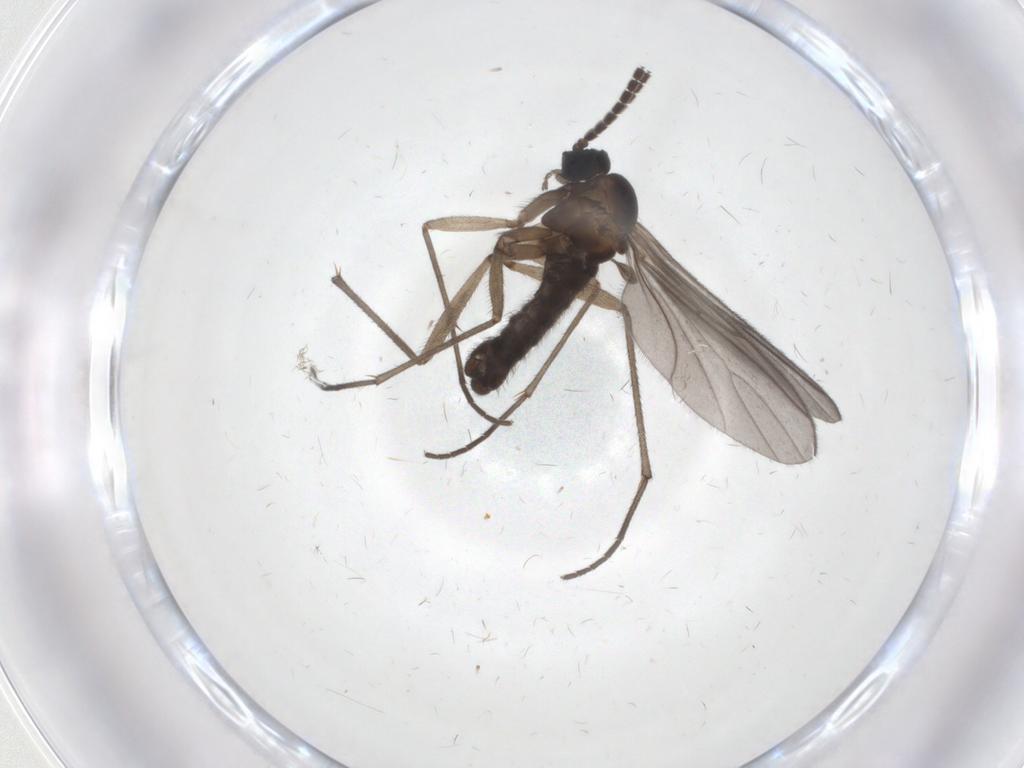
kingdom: Animalia
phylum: Arthropoda
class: Insecta
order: Diptera
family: Sciaridae
